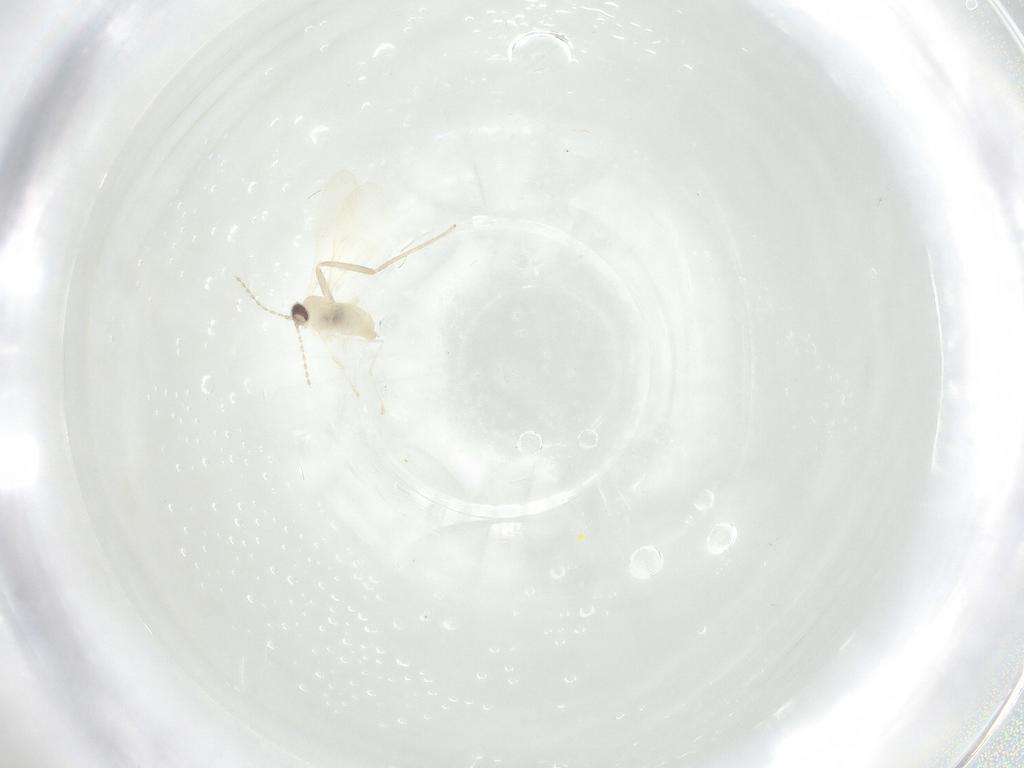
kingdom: Animalia
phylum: Arthropoda
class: Insecta
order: Diptera
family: Cecidomyiidae
